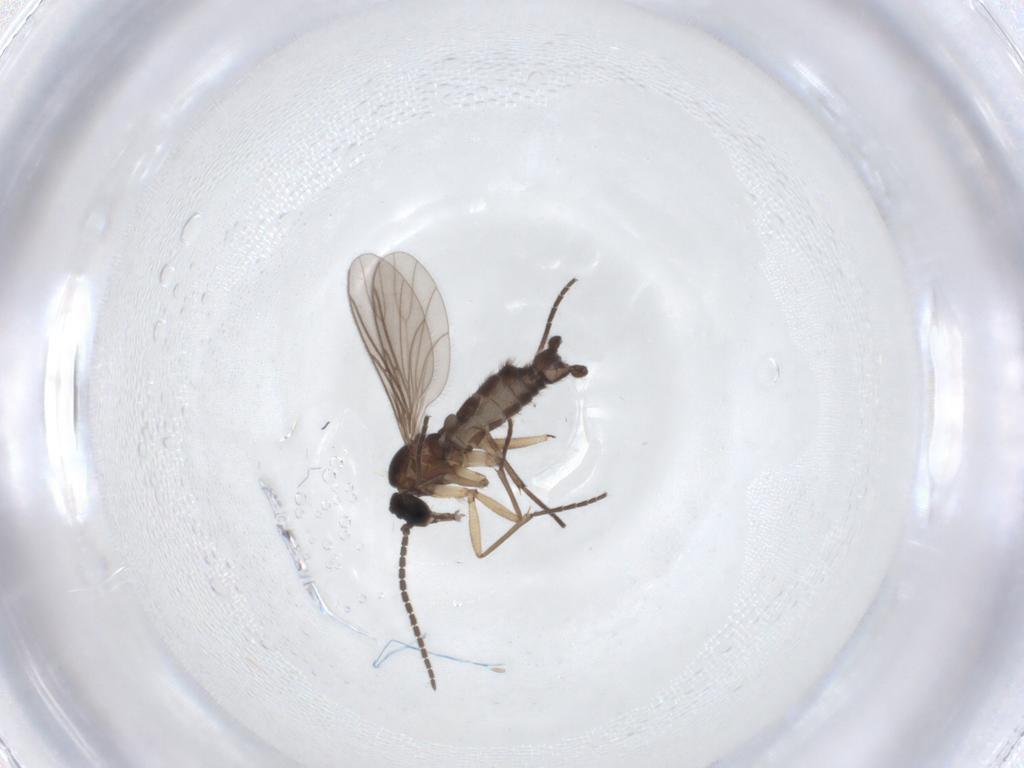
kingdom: Animalia
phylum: Arthropoda
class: Insecta
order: Diptera
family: Sciaridae
